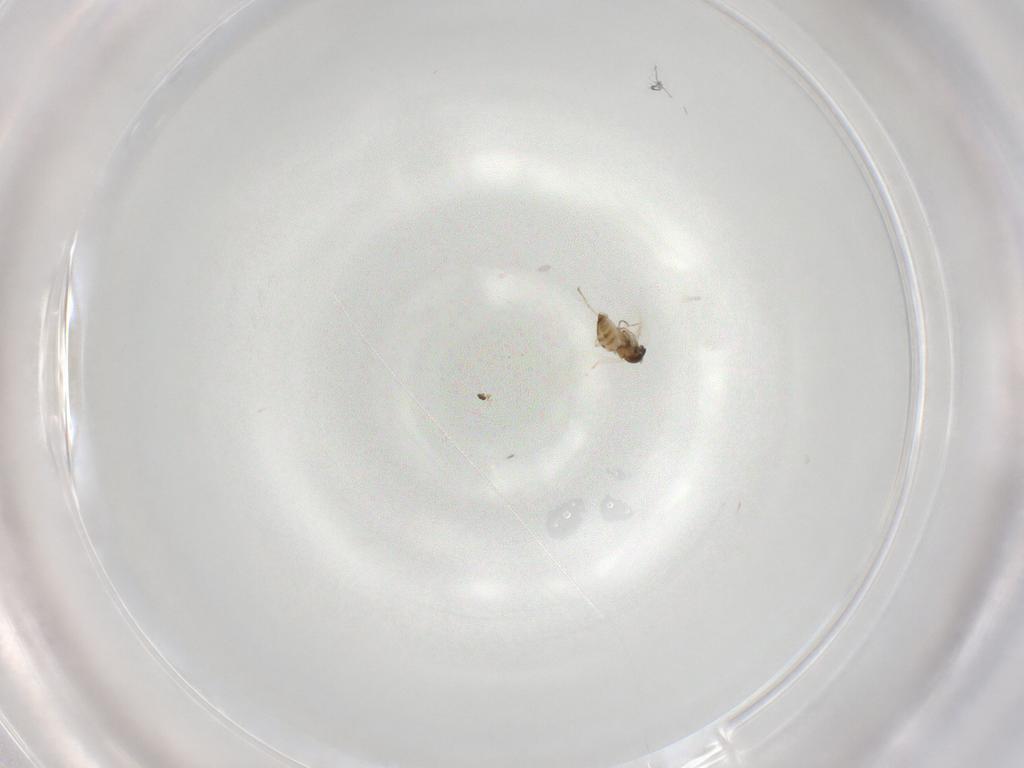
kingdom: Animalia
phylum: Arthropoda
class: Insecta
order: Diptera
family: Cecidomyiidae
